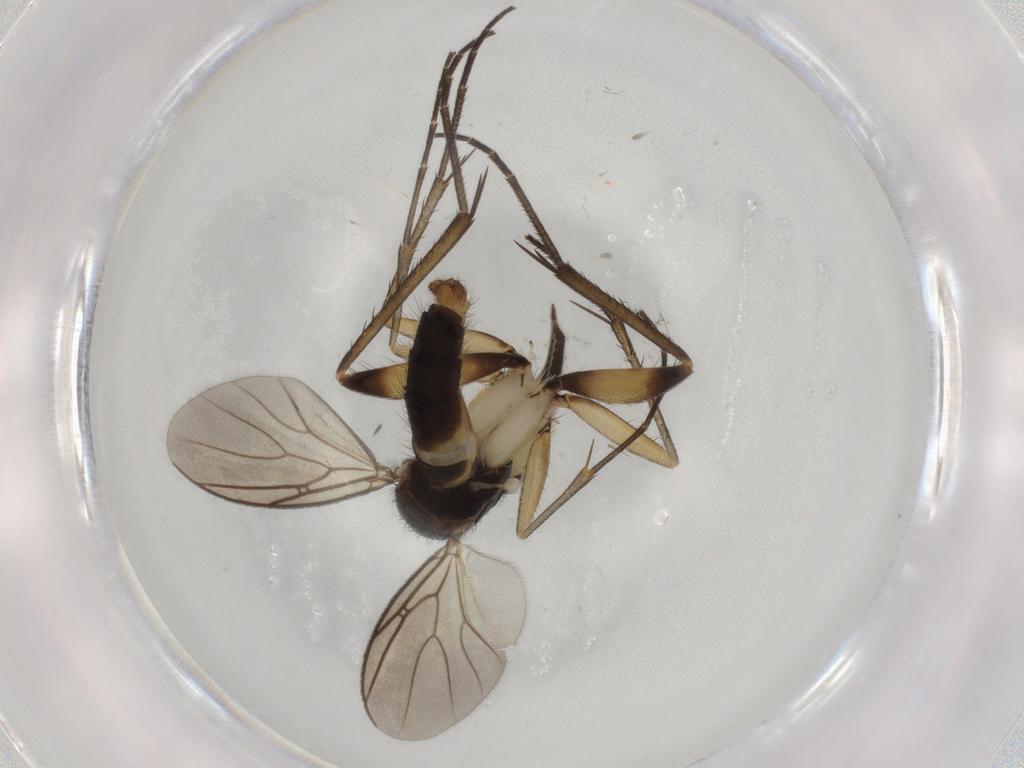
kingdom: Animalia
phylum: Arthropoda
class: Insecta
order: Diptera
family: Mycetophilidae
